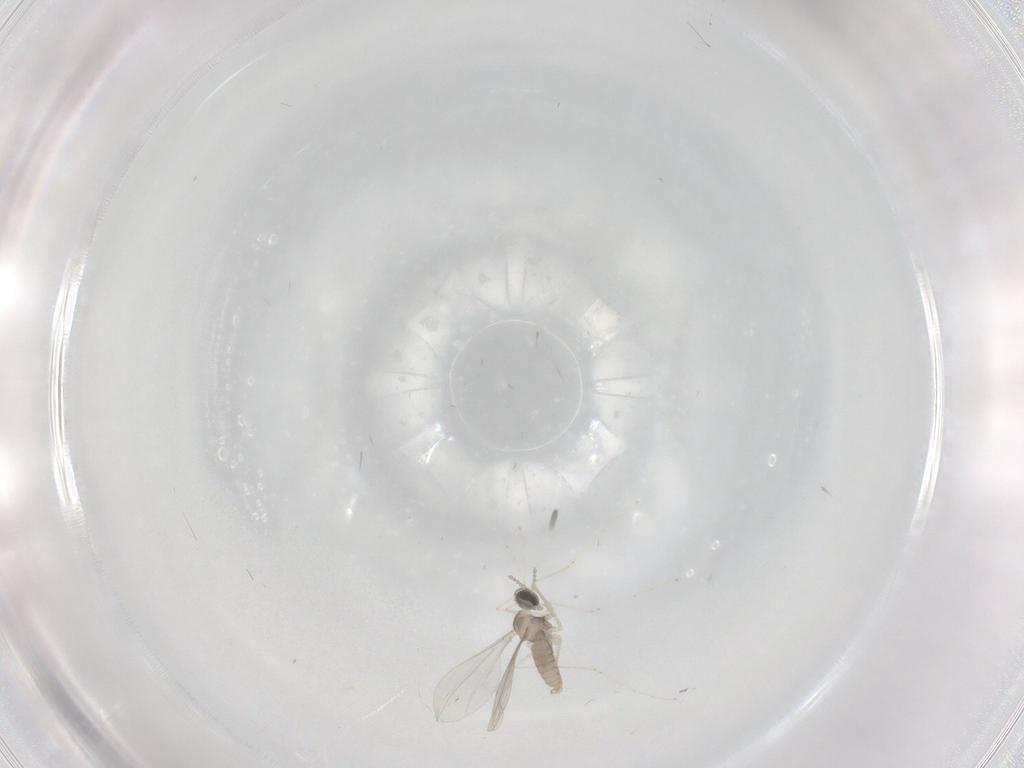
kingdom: Animalia
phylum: Arthropoda
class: Insecta
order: Diptera
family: Cecidomyiidae
